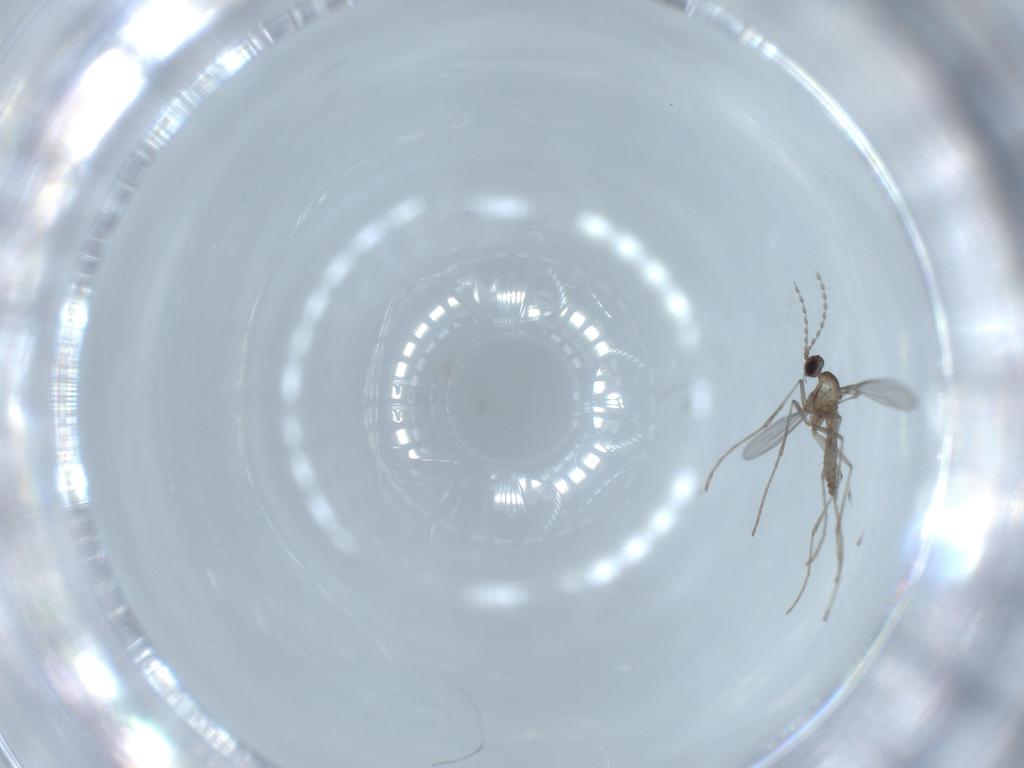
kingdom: Animalia
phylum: Arthropoda
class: Insecta
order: Diptera
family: Cecidomyiidae
